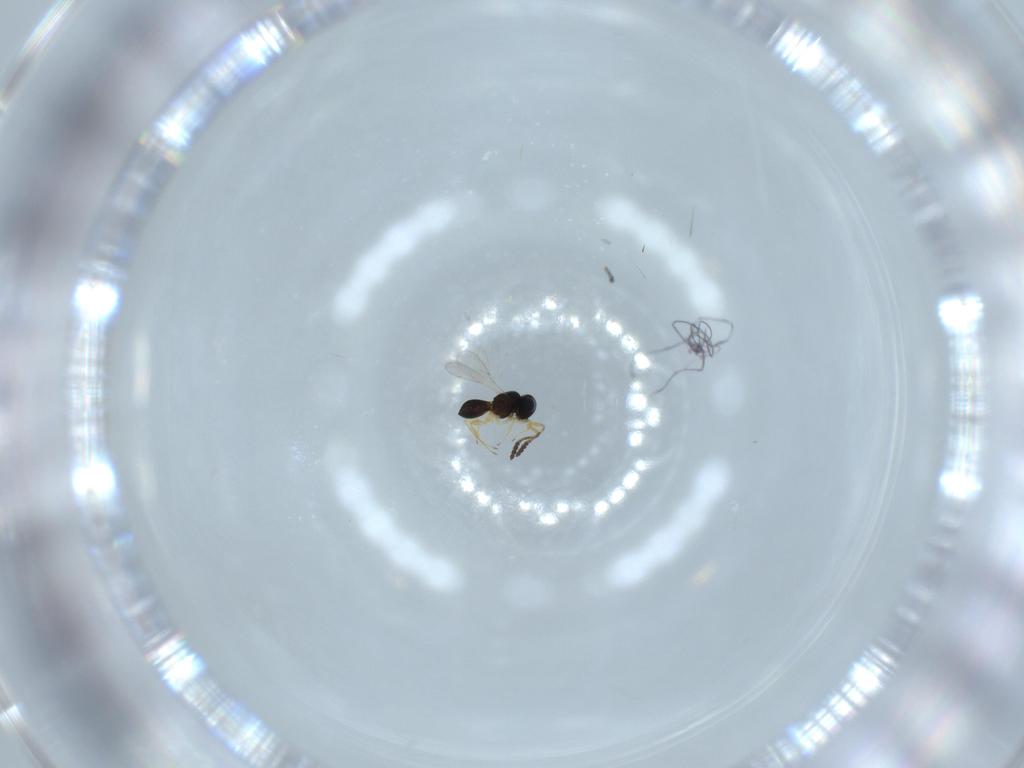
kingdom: Animalia
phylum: Arthropoda
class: Insecta
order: Hymenoptera
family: Scelionidae
